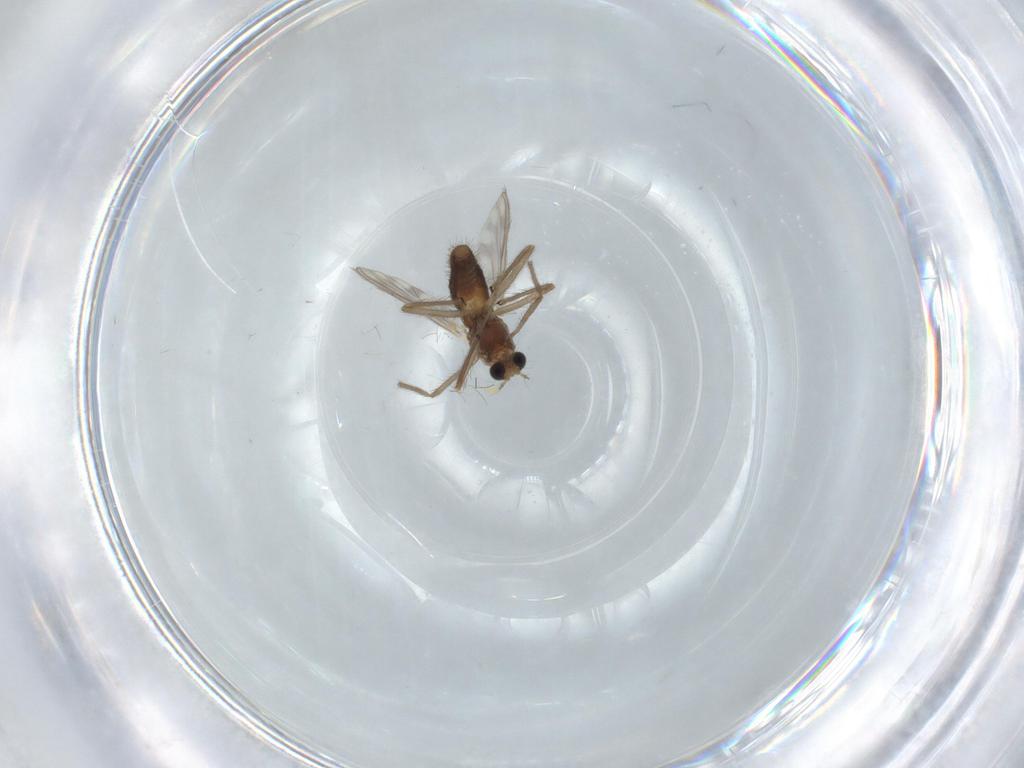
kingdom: Animalia
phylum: Arthropoda
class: Insecta
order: Diptera
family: Chironomidae
